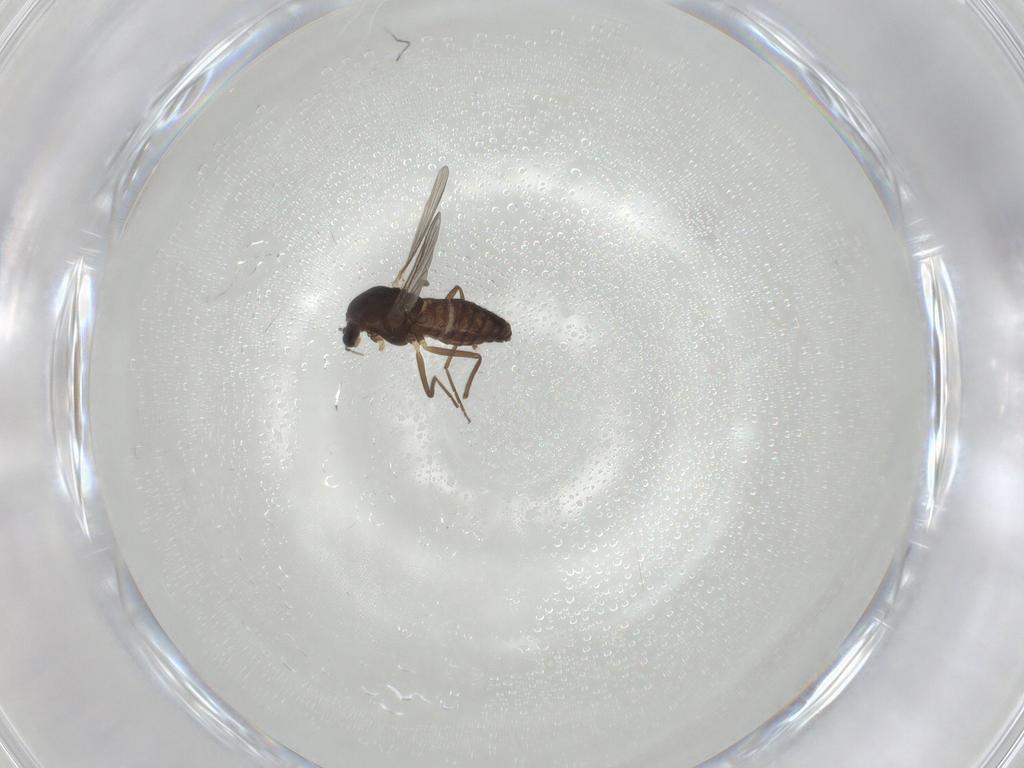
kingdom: Animalia
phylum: Arthropoda
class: Insecta
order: Diptera
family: Chironomidae
